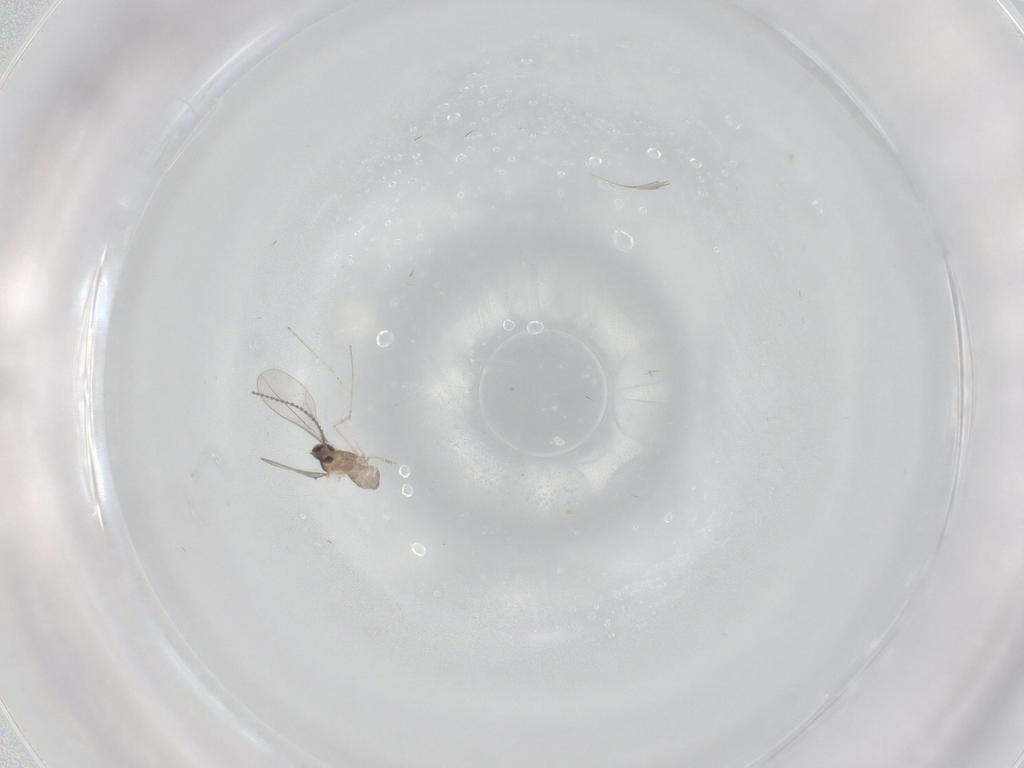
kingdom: Animalia
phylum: Arthropoda
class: Insecta
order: Diptera
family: Cecidomyiidae
